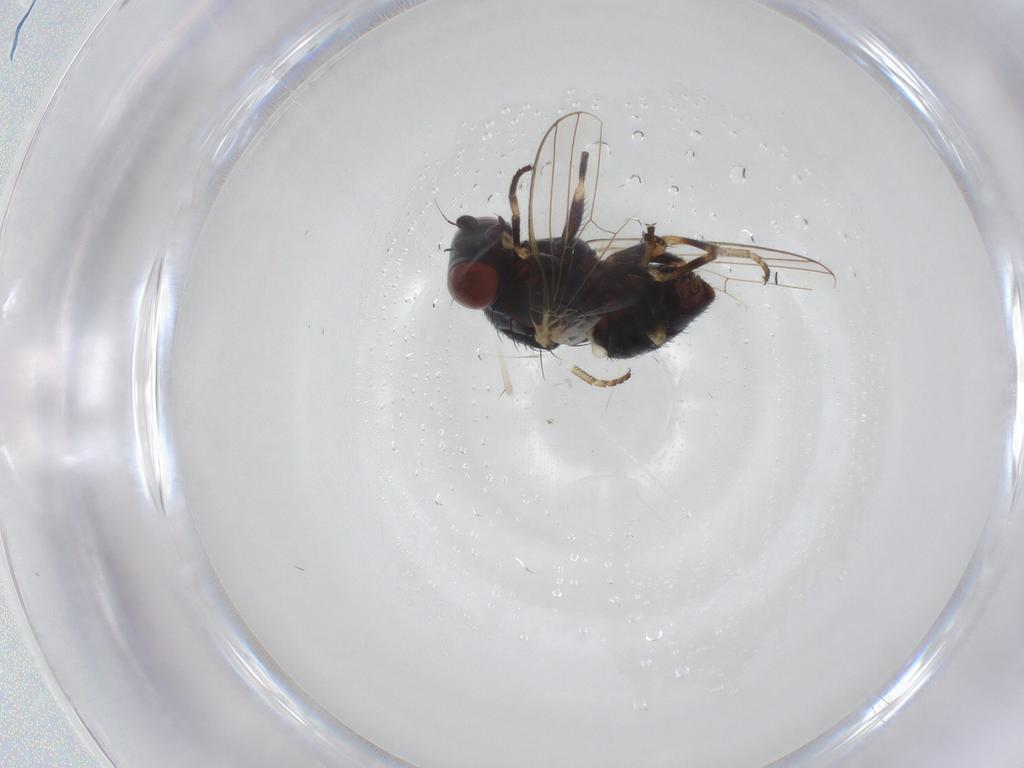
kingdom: Animalia
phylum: Arthropoda
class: Insecta
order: Diptera
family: Chamaemyiidae
